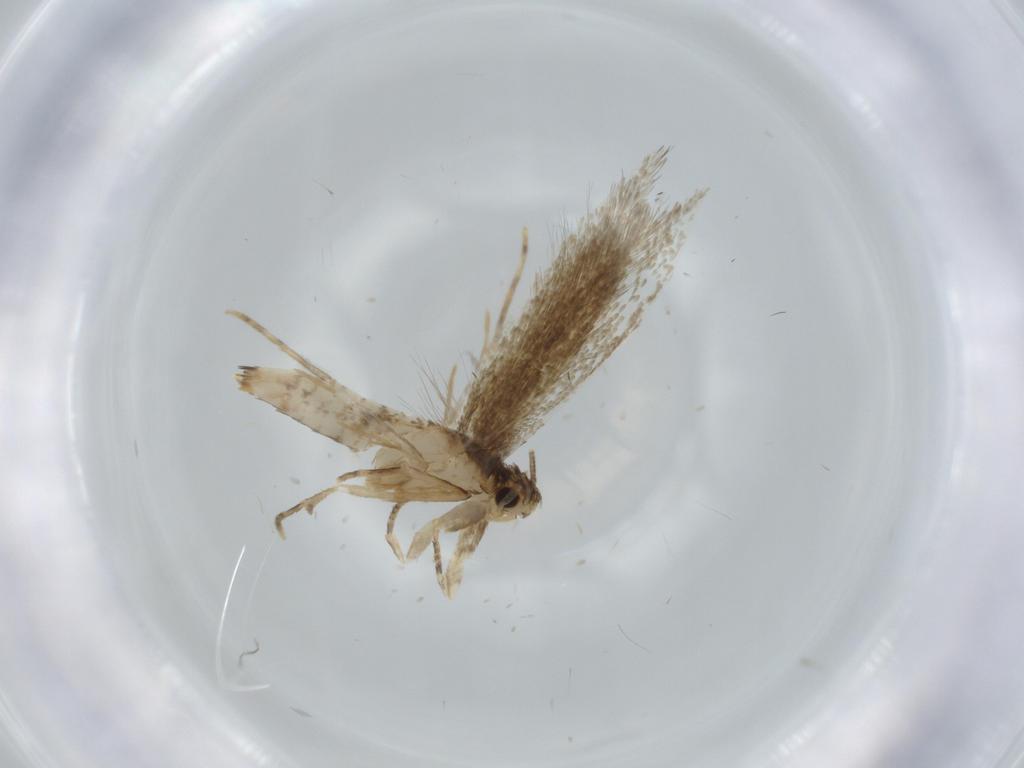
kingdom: Animalia
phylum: Arthropoda
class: Insecta
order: Lepidoptera
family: Tineidae
